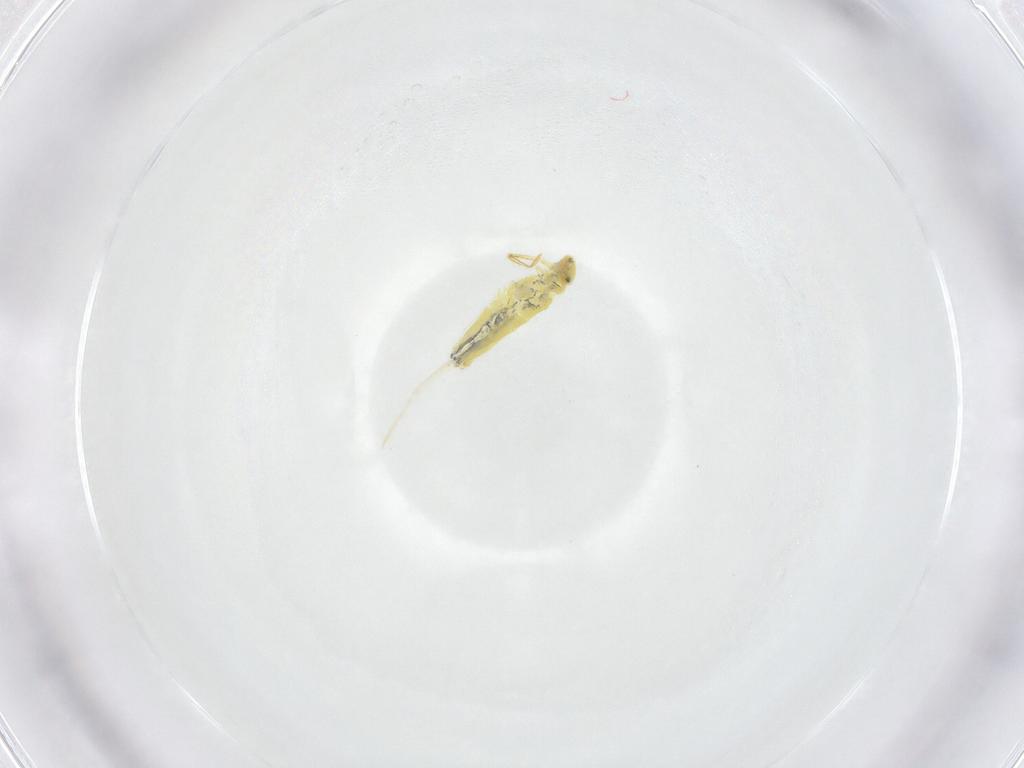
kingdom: Animalia
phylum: Arthropoda
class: Collembola
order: Entomobryomorpha
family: Entomobryidae
